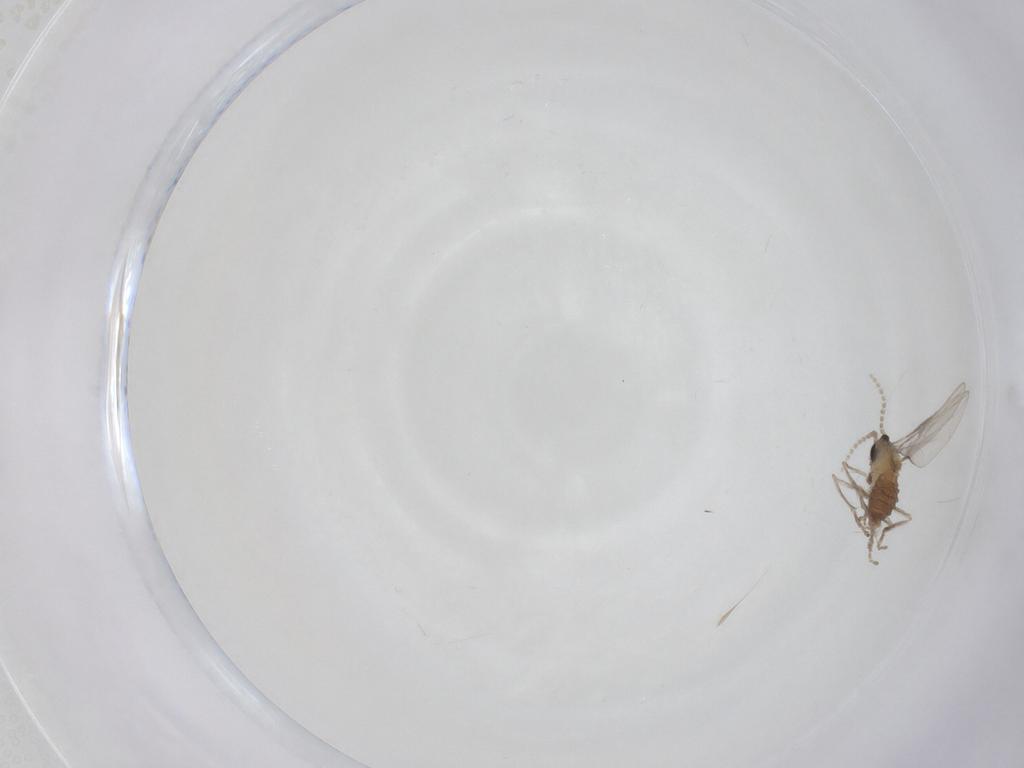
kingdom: Animalia
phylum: Arthropoda
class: Insecta
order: Diptera
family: Cecidomyiidae
